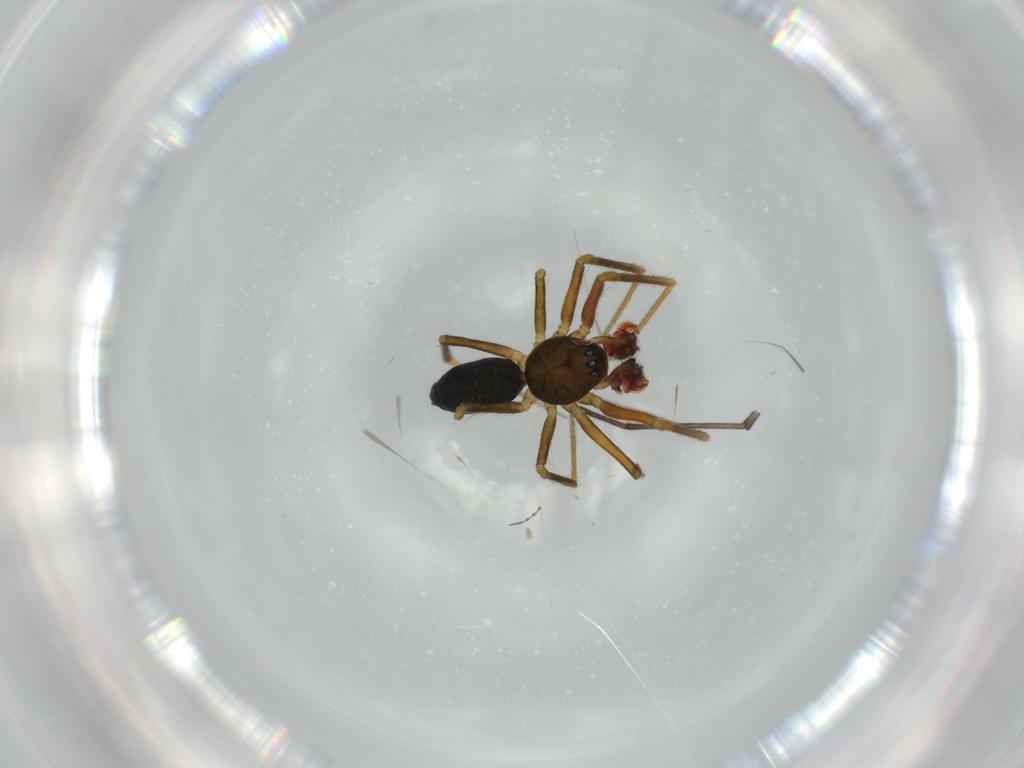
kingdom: Animalia
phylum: Arthropoda
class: Arachnida
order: Araneae
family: Linyphiidae
